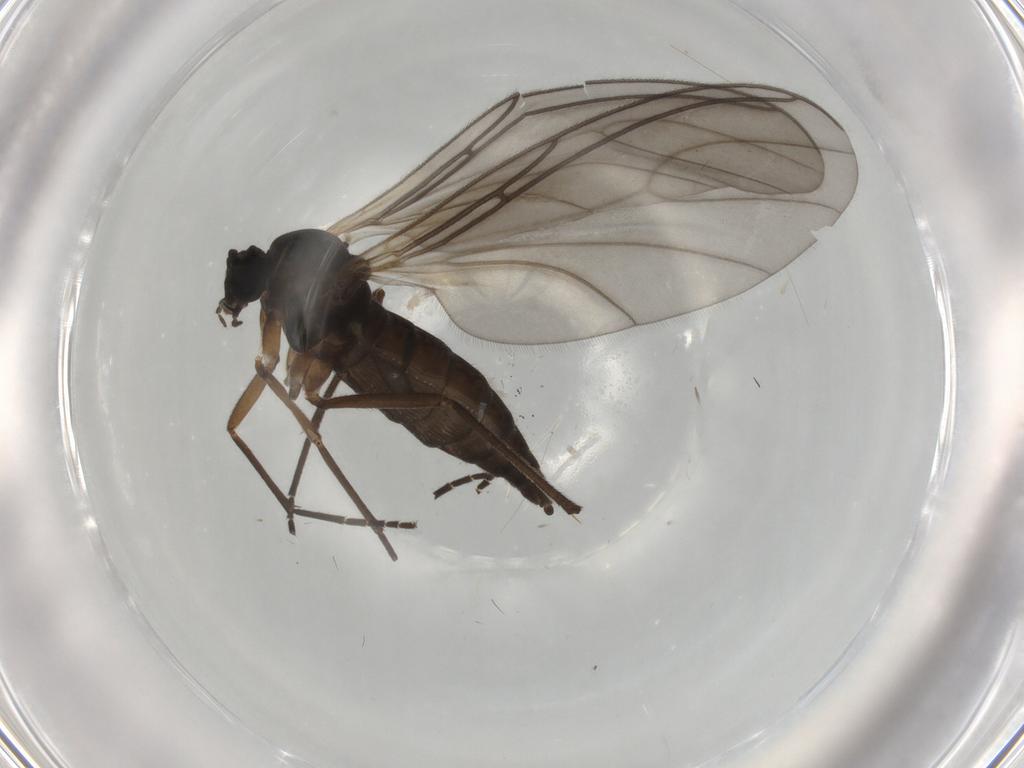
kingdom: Animalia
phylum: Arthropoda
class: Insecta
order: Diptera
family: Sciaridae
